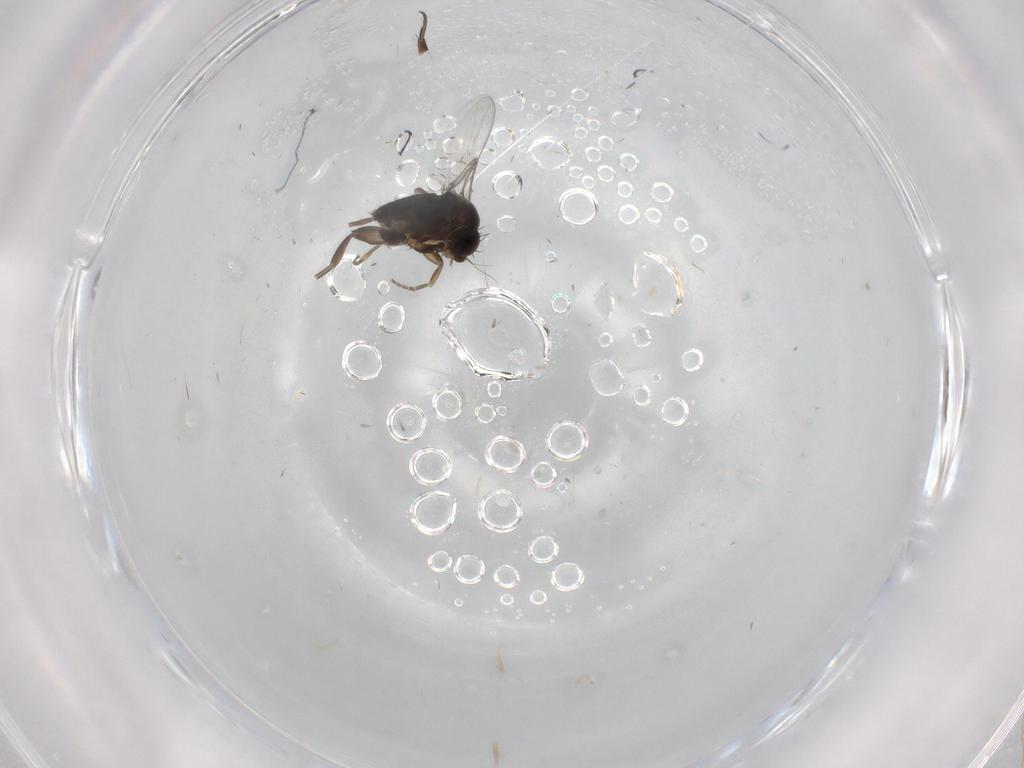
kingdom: Animalia
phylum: Arthropoda
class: Insecta
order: Diptera
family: Phoridae
